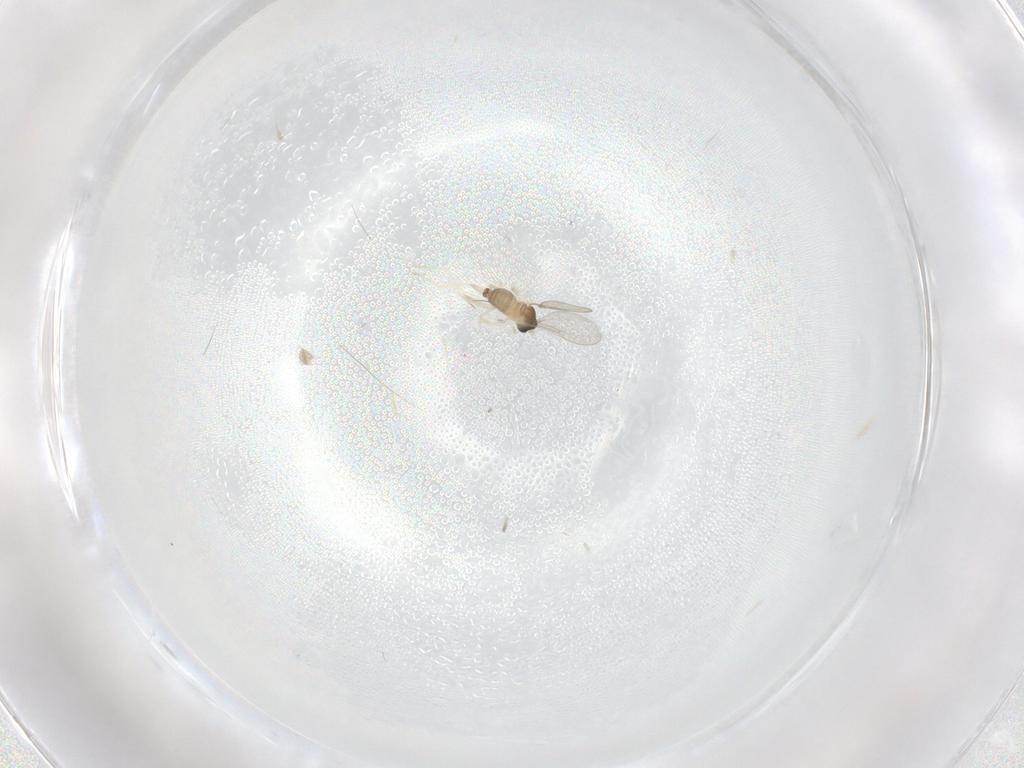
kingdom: Animalia
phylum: Arthropoda
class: Insecta
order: Diptera
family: Cecidomyiidae
